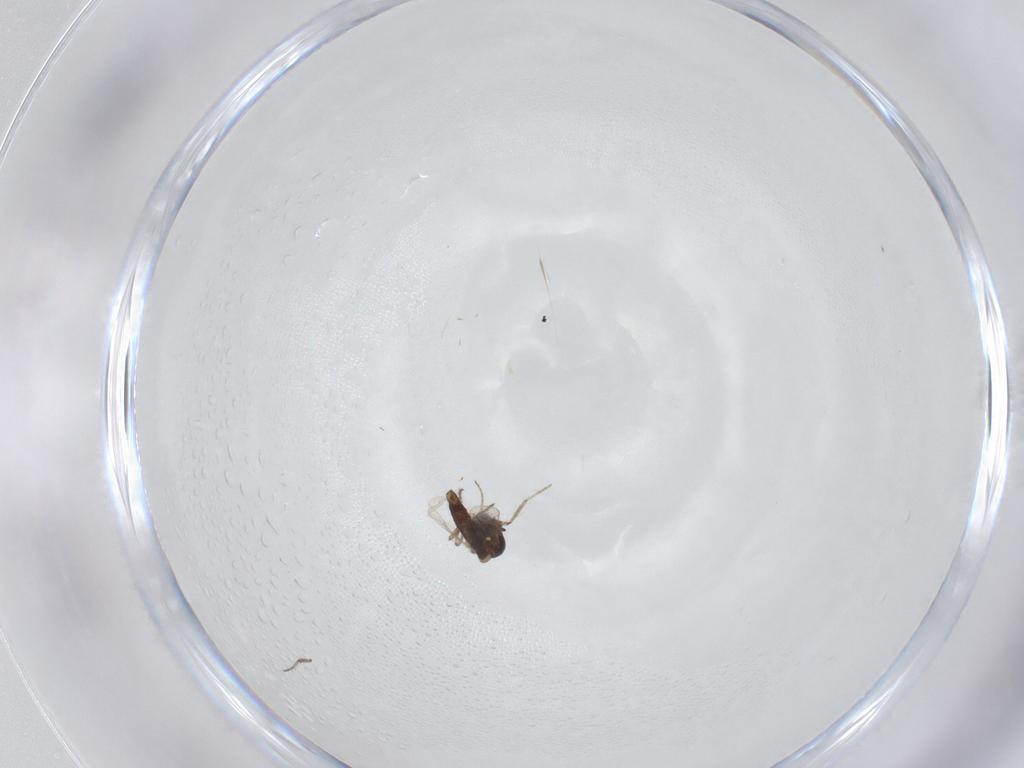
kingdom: Animalia
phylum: Arthropoda
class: Insecta
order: Diptera
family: Ceratopogonidae
